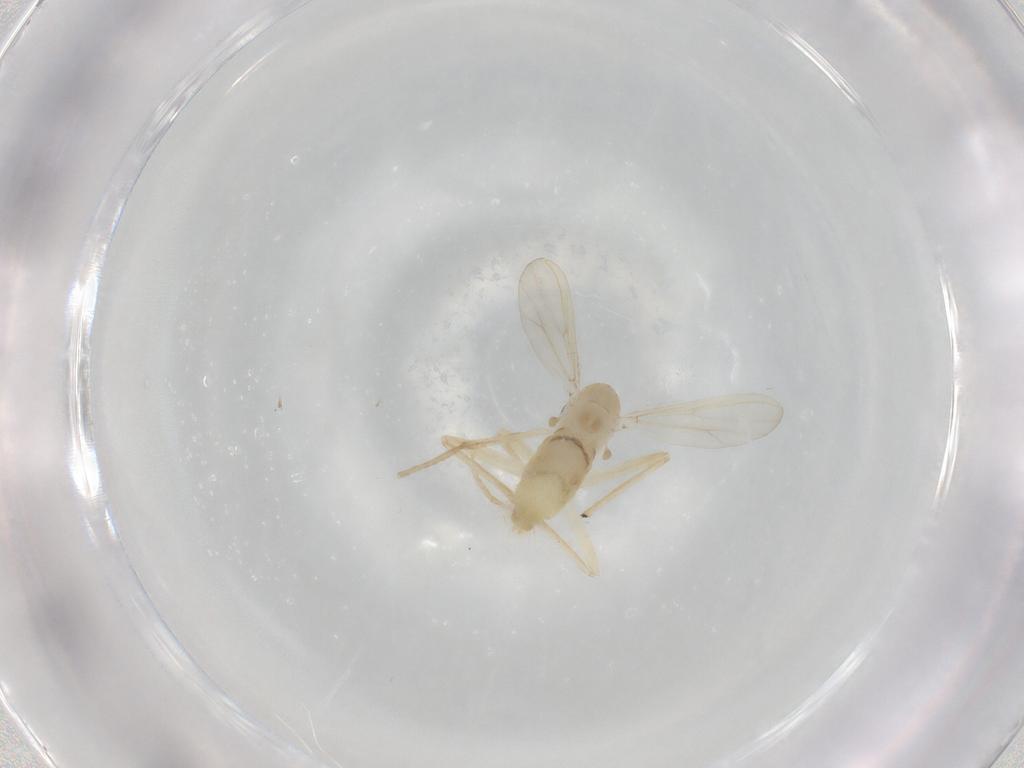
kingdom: Animalia
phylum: Arthropoda
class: Insecta
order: Diptera
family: Chironomidae
